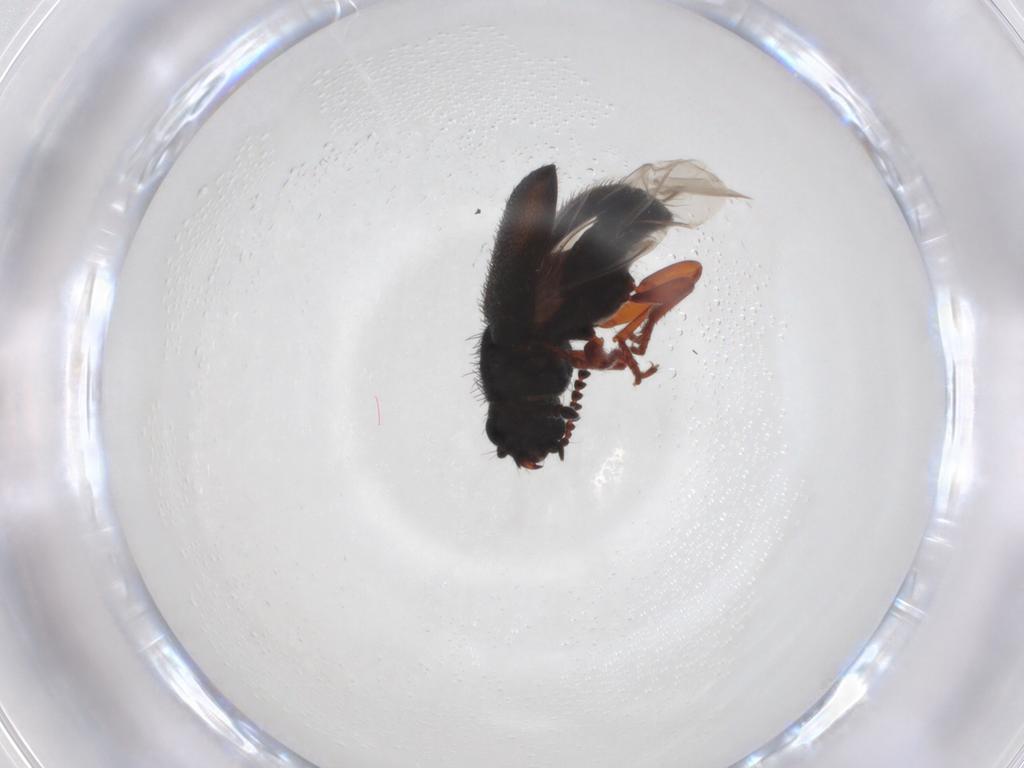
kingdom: Animalia
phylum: Arthropoda
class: Insecta
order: Coleoptera
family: Melyridae
